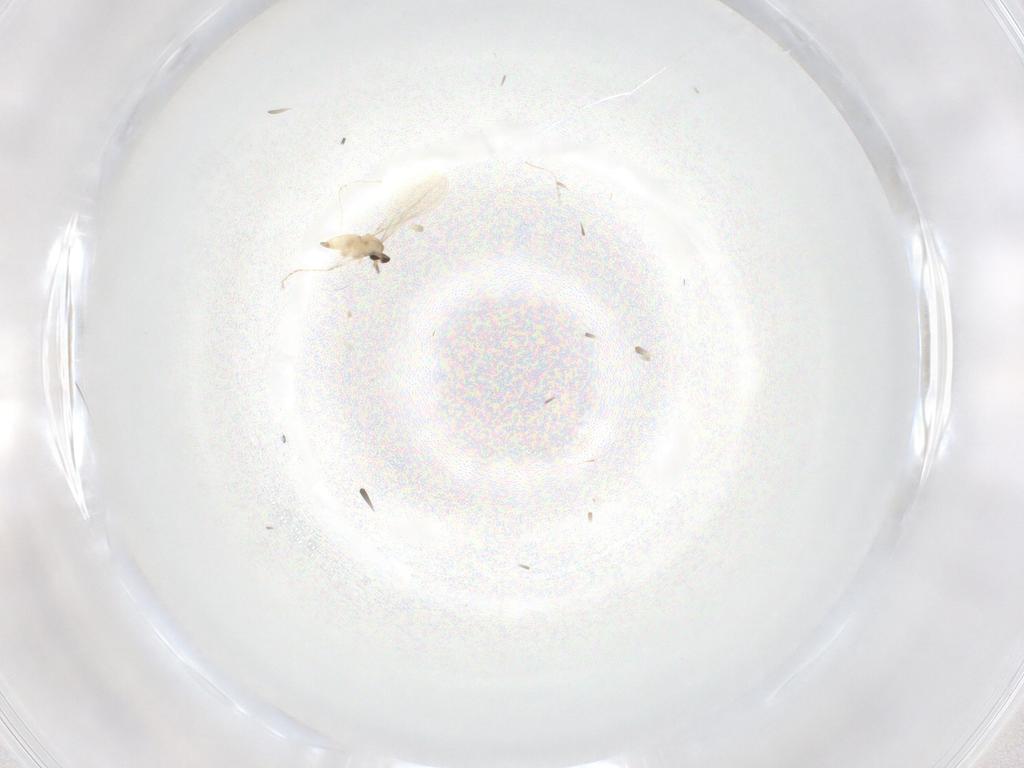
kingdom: Animalia
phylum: Arthropoda
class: Insecta
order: Diptera
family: Cecidomyiidae
